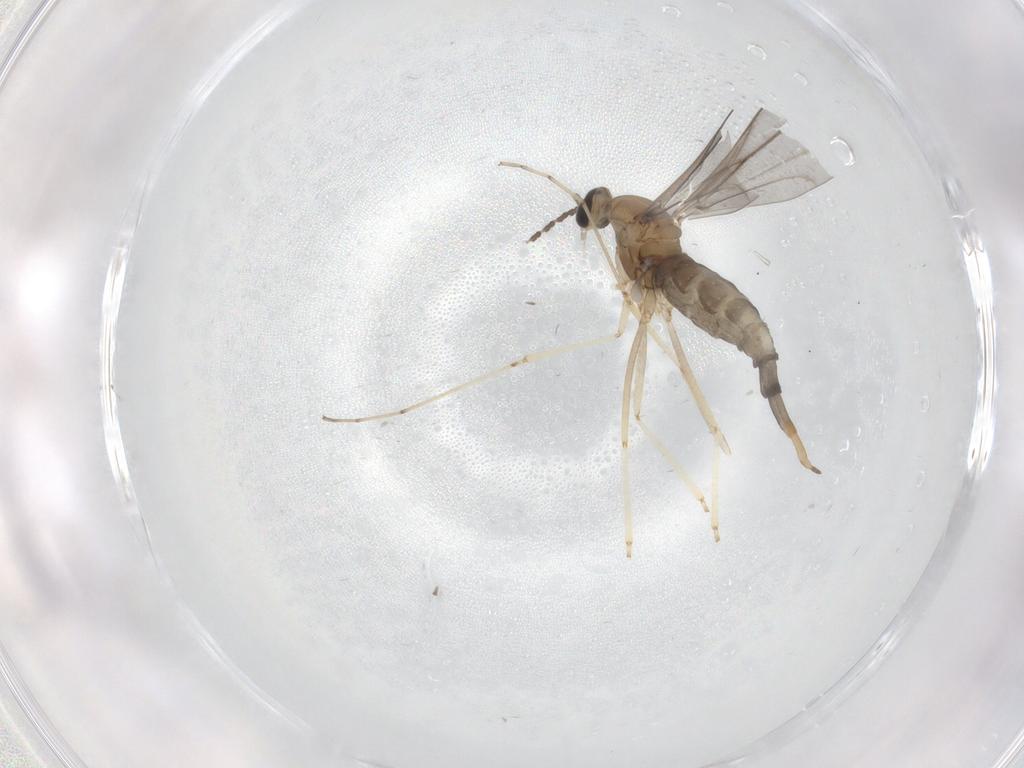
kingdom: Animalia
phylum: Arthropoda
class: Insecta
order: Diptera
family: Cecidomyiidae
